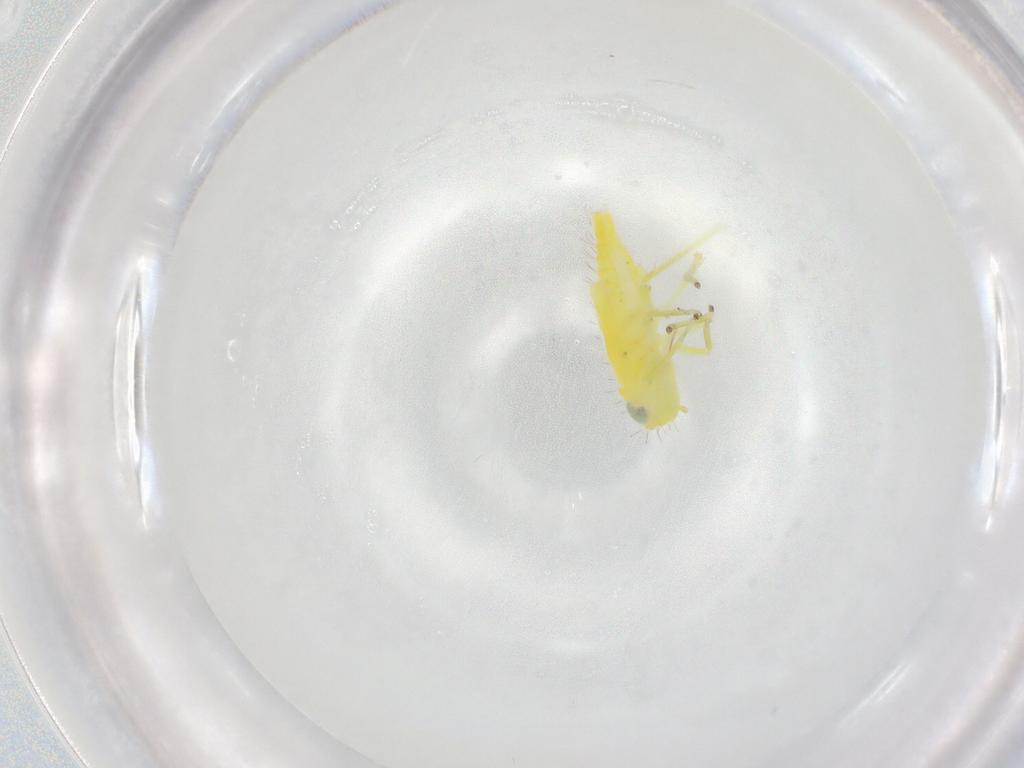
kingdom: Animalia
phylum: Arthropoda
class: Insecta
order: Hemiptera
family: Cicadellidae
